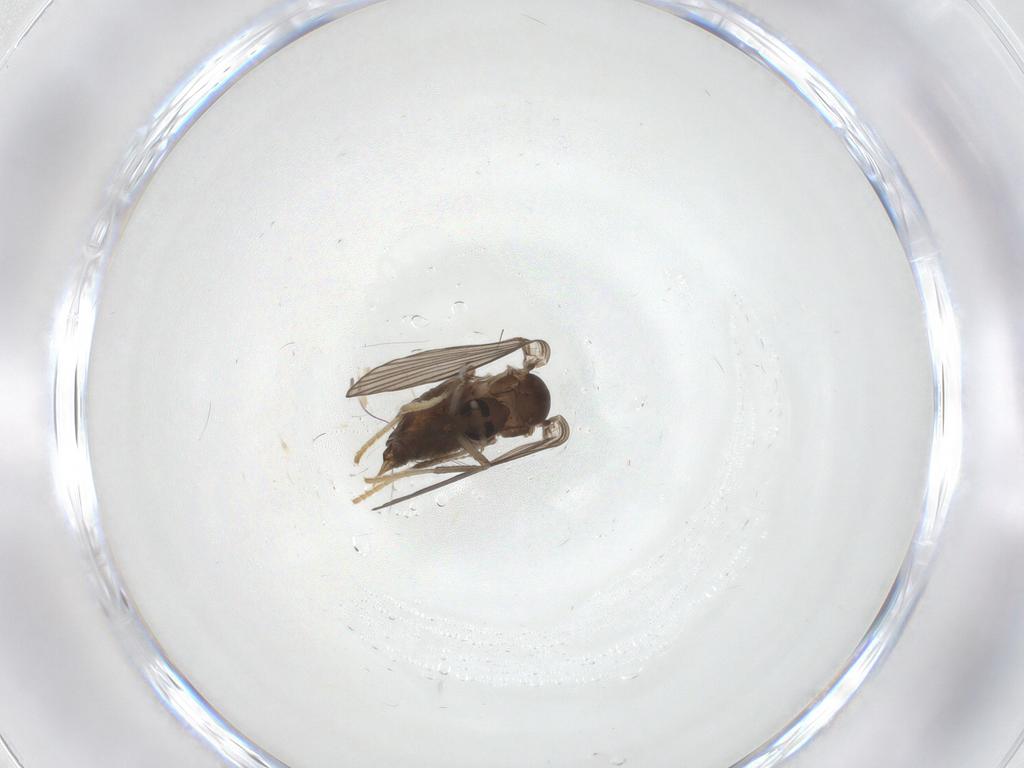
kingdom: Animalia
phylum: Arthropoda
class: Insecta
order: Diptera
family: Psychodidae
